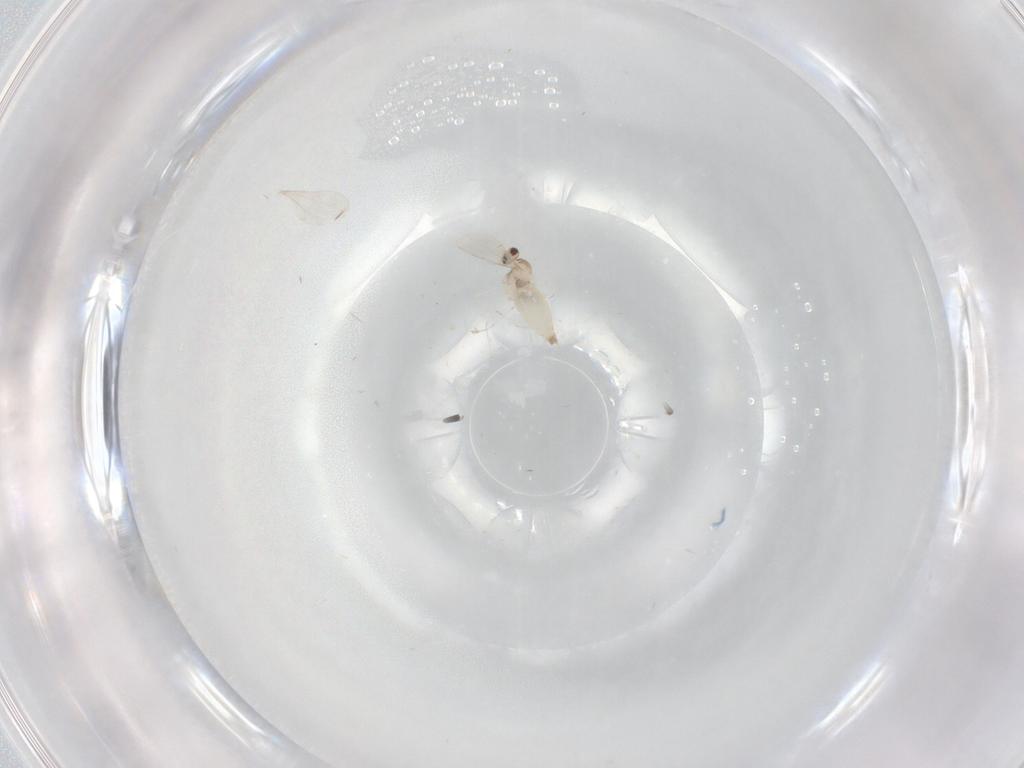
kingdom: Animalia
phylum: Arthropoda
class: Insecta
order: Diptera
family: Cecidomyiidae
